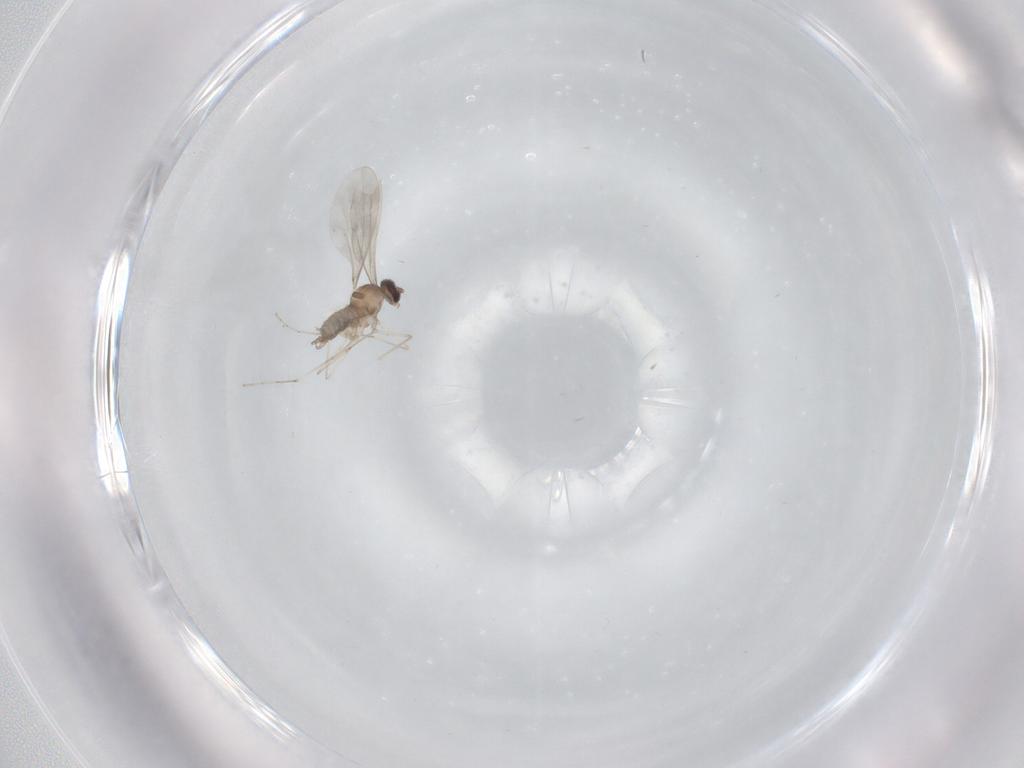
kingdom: Animalia
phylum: Arthropoda
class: Insecta
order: Diptera
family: Cecidomyiidae
